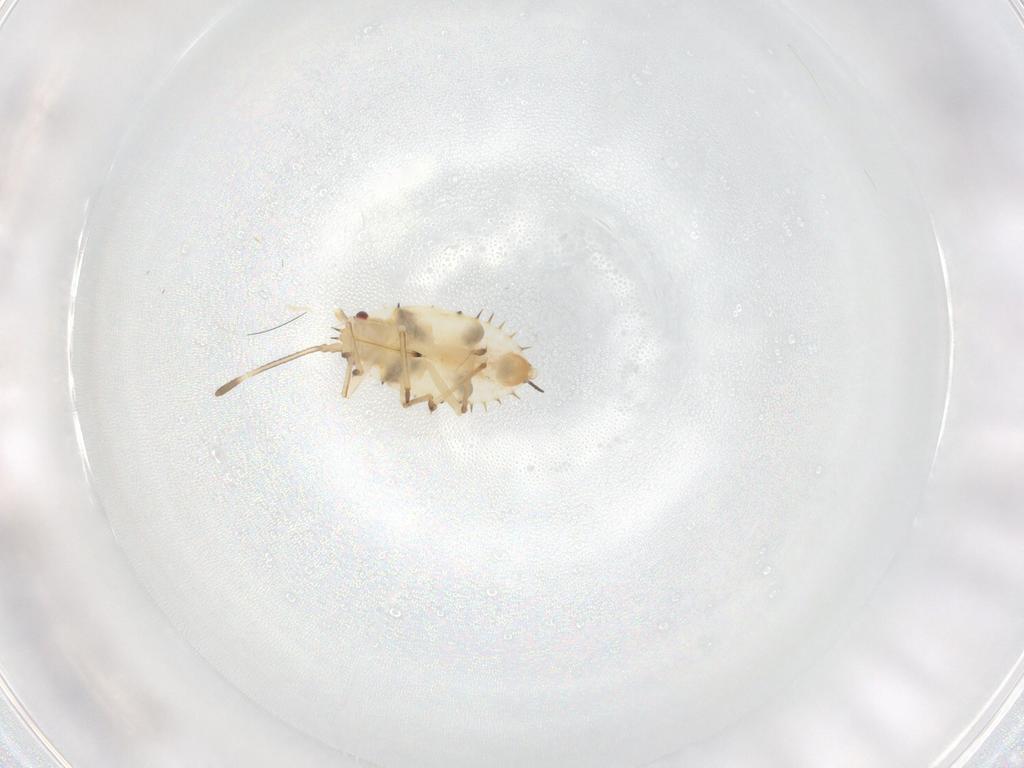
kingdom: Animalia
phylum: Arthropoda
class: Insecta
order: Hemiptera
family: Tingidae
